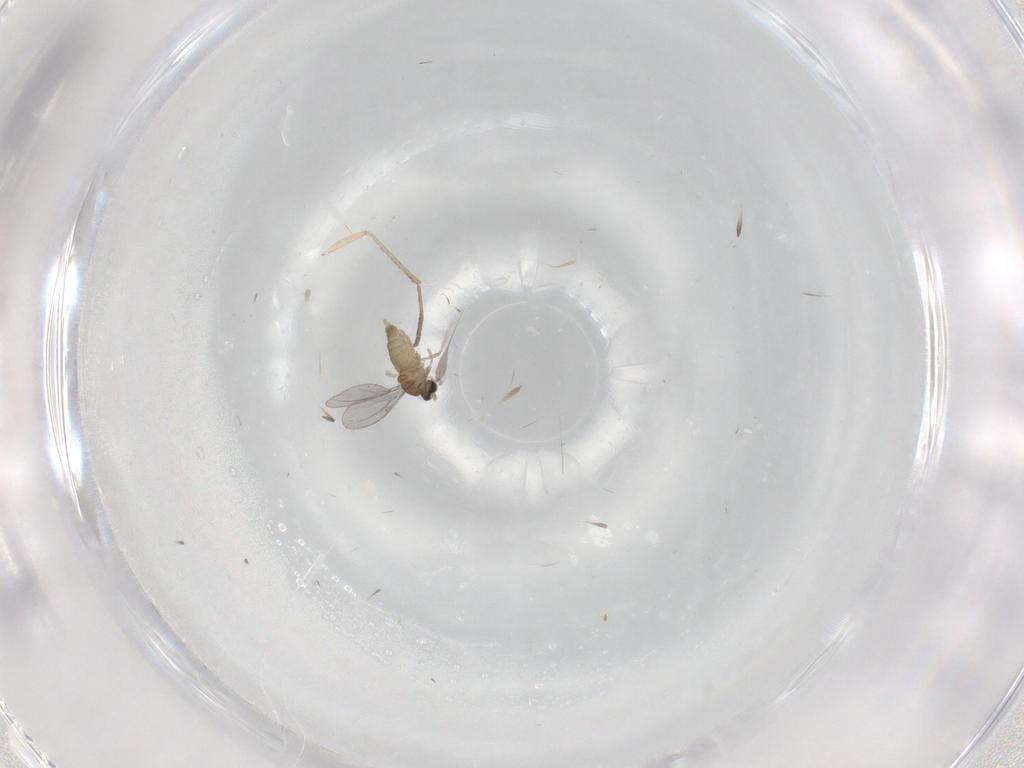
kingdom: Animalia
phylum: Arthropoda
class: Insecta
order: Diptera
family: Psychodidae
